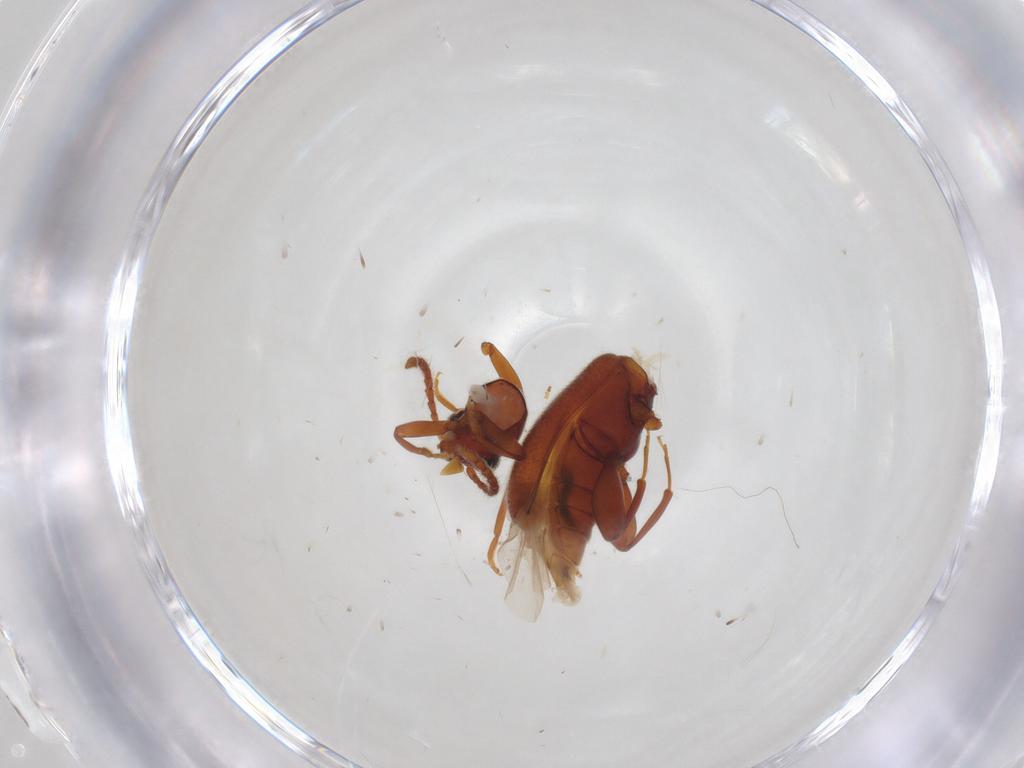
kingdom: Animalia
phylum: Arthropoda
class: Insecta
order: Coleoptera
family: Aderidae
